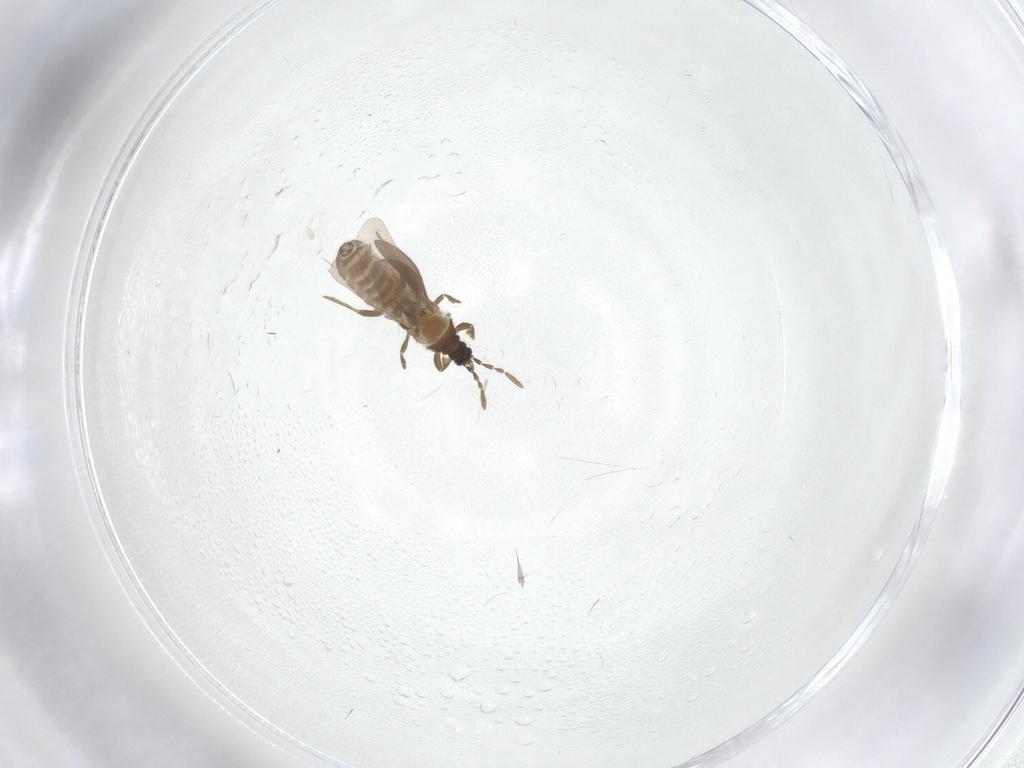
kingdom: Animalia
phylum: Arthropoda
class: Insecta
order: Hemiptera
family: Enicocephalidae
